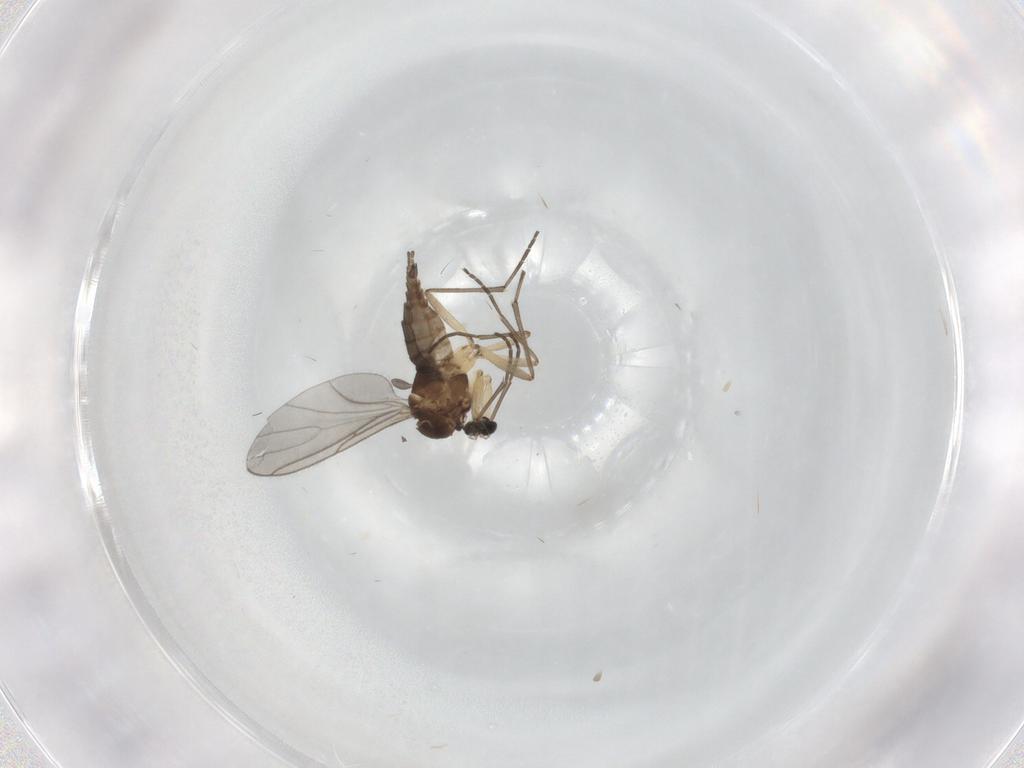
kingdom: Animalia
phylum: Arthropoda
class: Insecta
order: Diptera
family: Sciaridae
